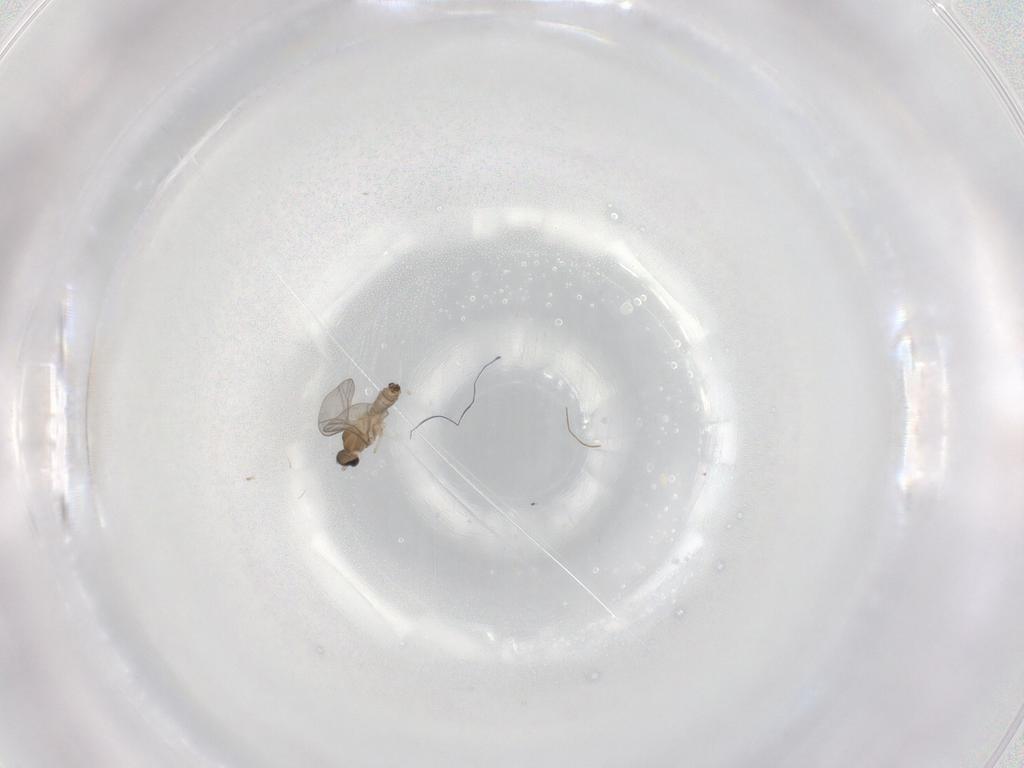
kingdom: Animalia
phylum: Arthropoda
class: Insecta
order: Diptera
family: Cecidomyiidae
